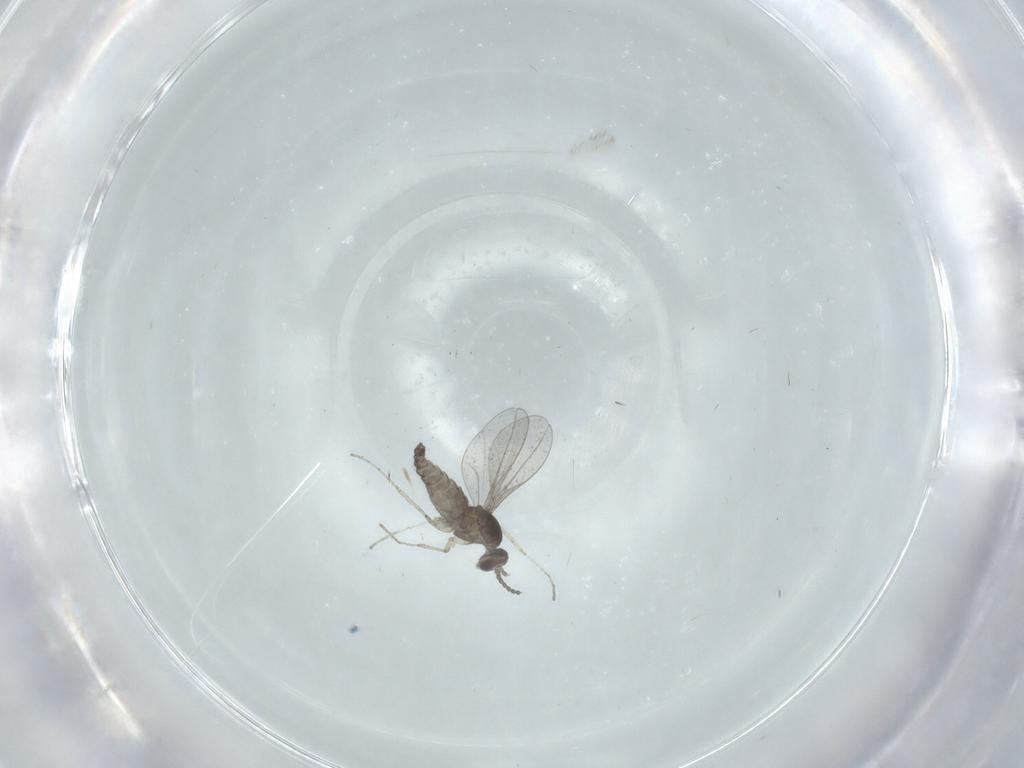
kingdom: Animalia
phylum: Arthropoda
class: Insecta
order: Diptera
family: Cecidomyiidae
